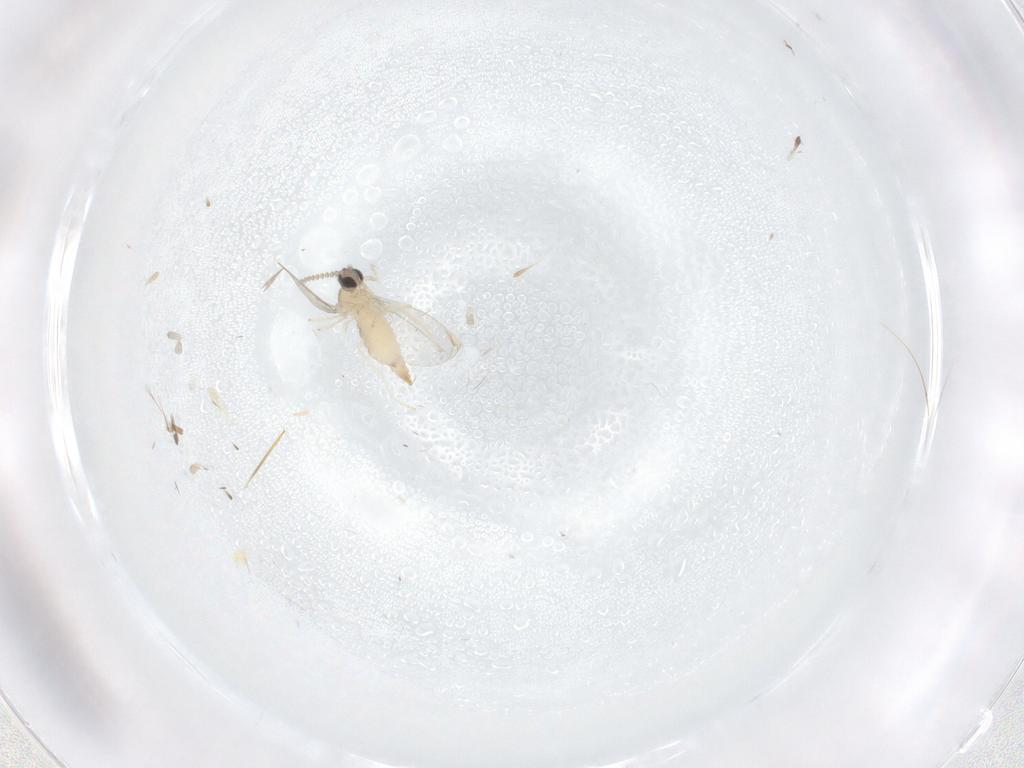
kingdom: Animalia
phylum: Arthropoda
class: Insecta
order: Diptera
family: Cecidomyiidae
